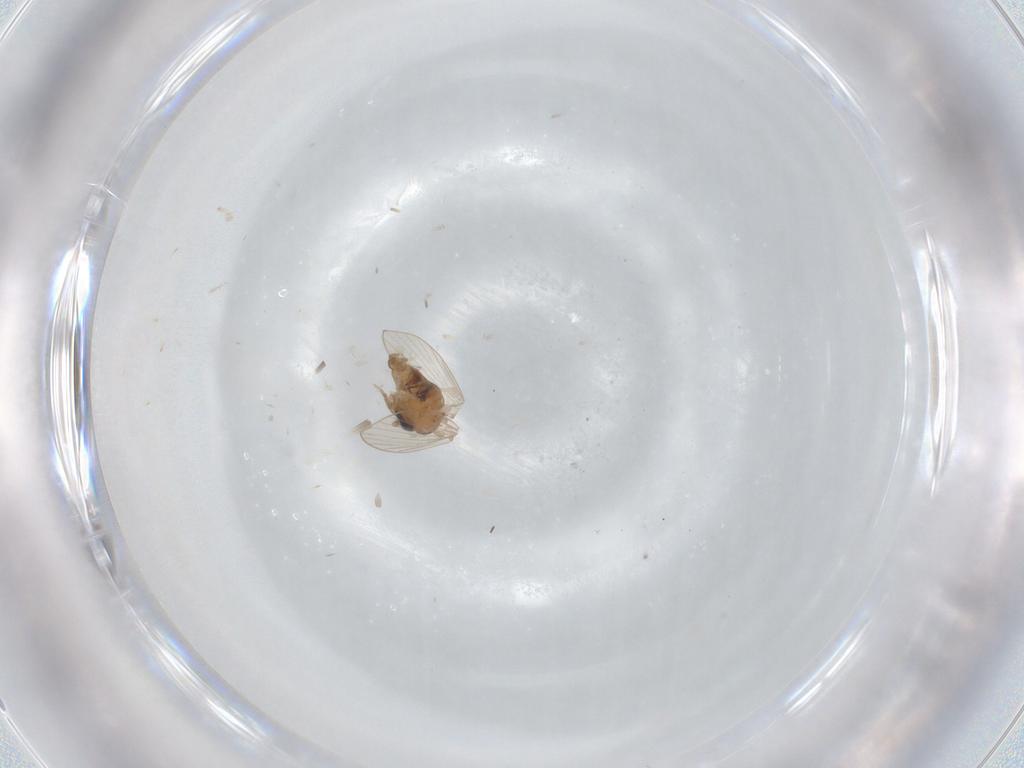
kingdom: Animalia
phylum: Arthropoda
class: Insecta
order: Diptera
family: Psychodidae
